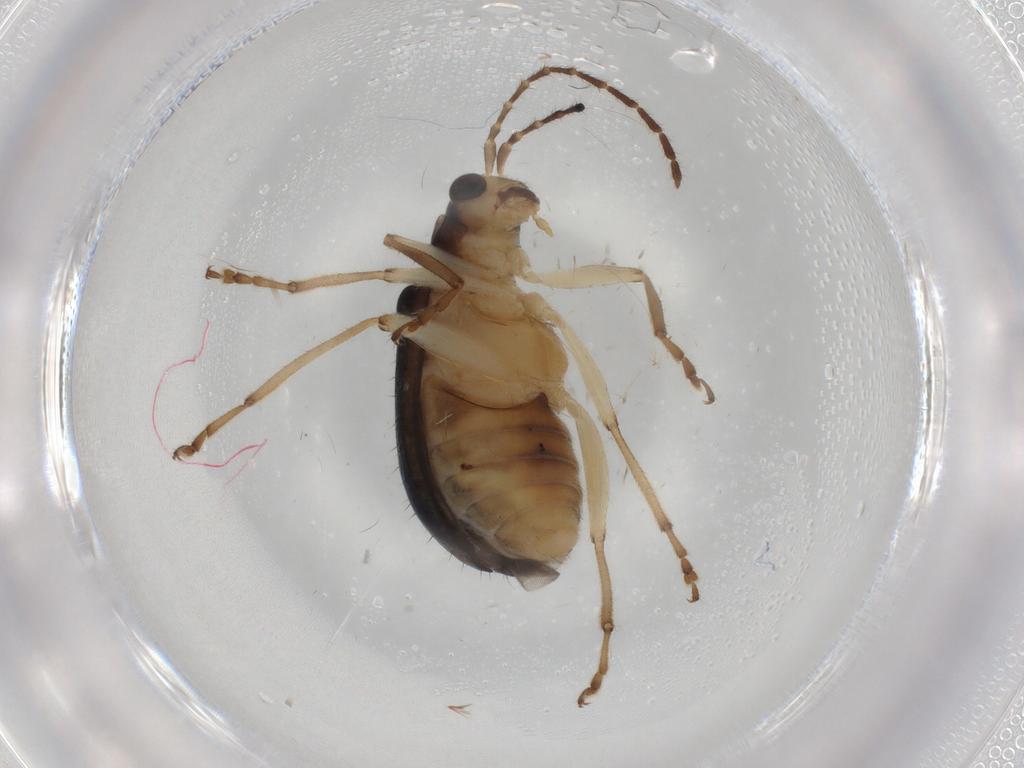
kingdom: Animalia
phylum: Arthropoda
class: Insecta
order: Coleoptera
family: Chrysomelidae
